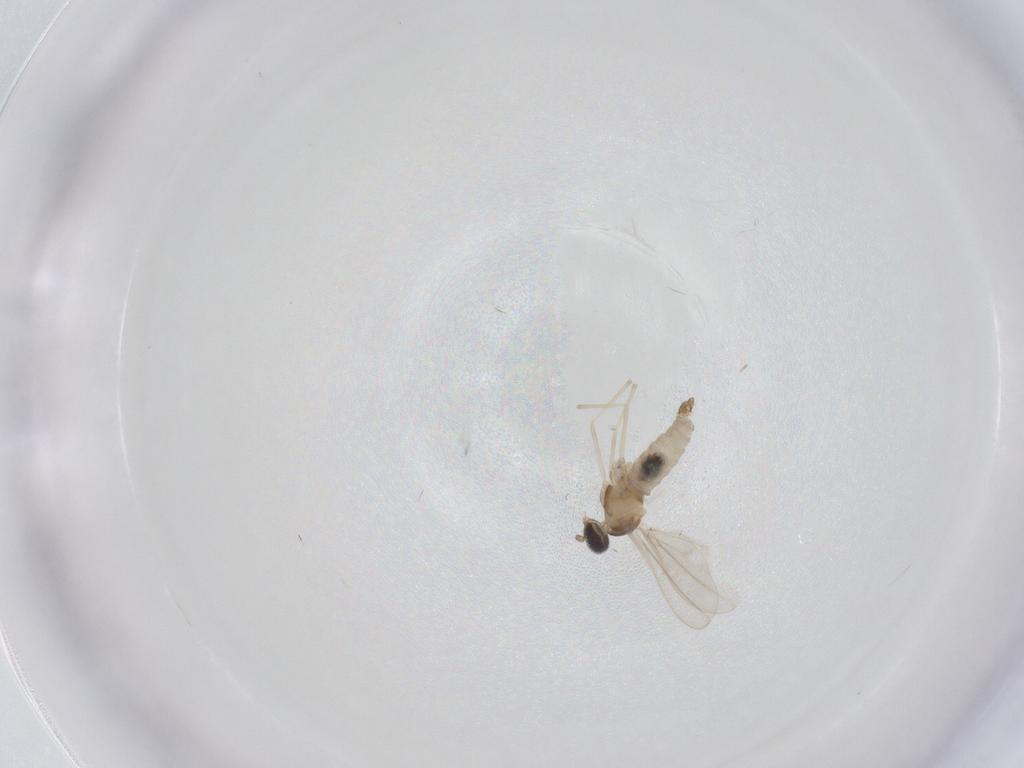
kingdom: Animalia
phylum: Arthropoda
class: Insecta
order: Diptera
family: Cecidomyiidae
